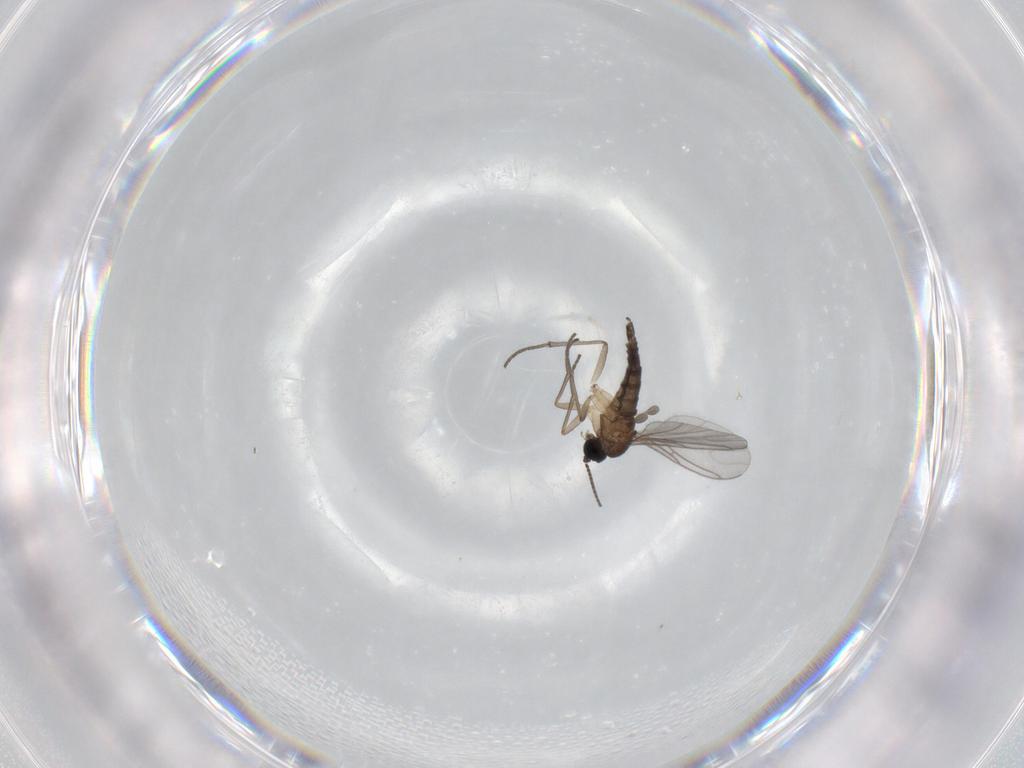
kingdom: Animalia
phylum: Arthropoda
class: Insecta
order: Diptera
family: Sciaridae
